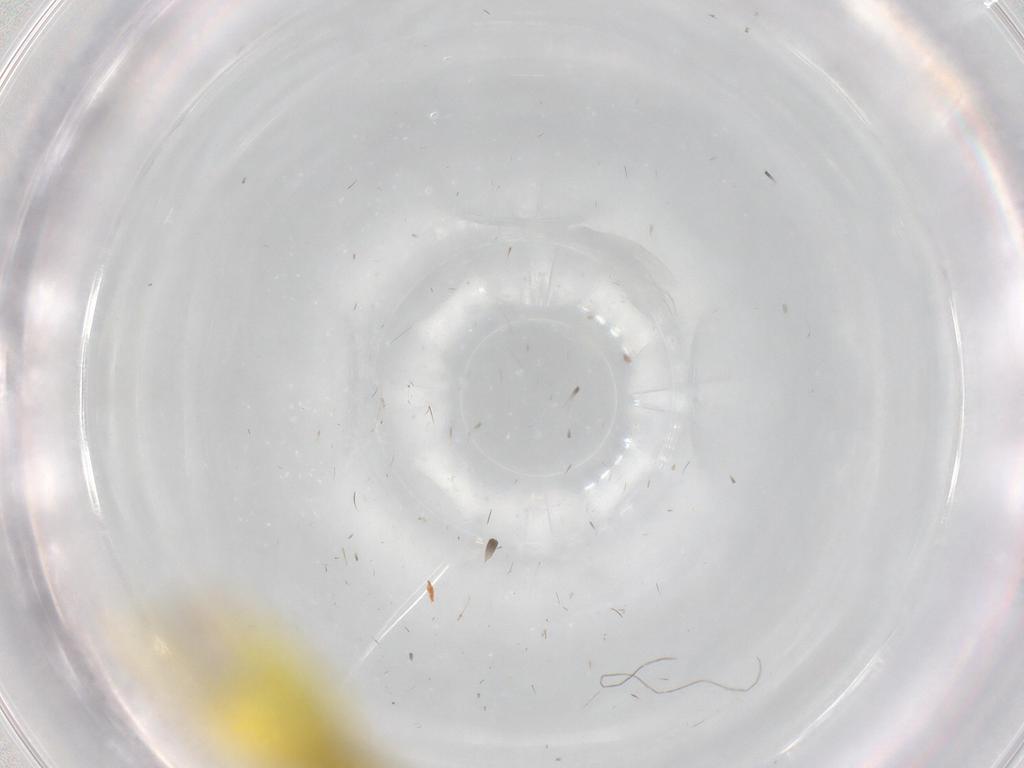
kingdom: Animalia
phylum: Arthropoda
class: Insecta
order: Hemiptera
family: Cicadellidae
